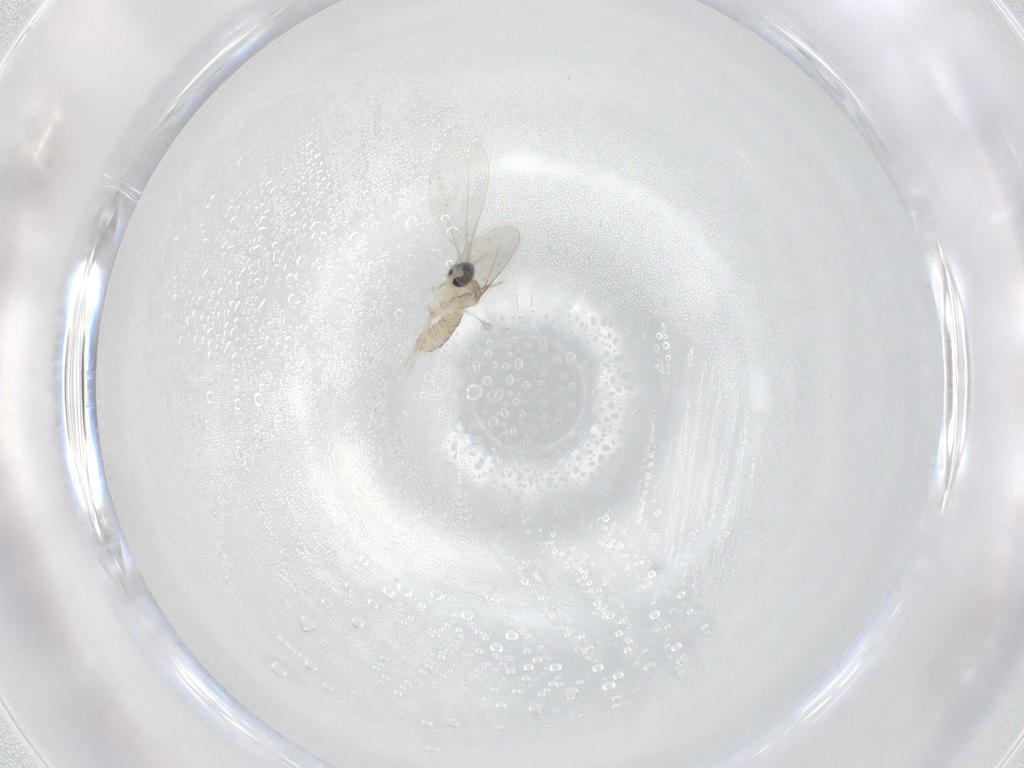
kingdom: Animalia
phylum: Arthropoda
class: Insecta
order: Diptera
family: Cecidomyiidae
